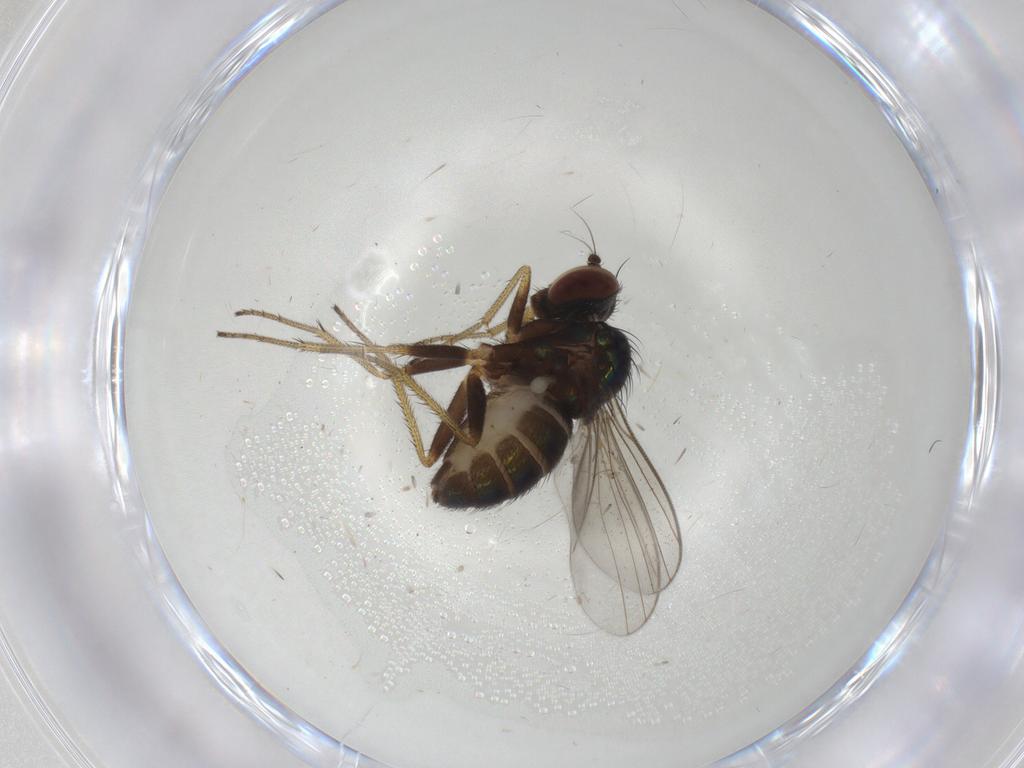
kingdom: Animalia
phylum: Arthropoda
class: Insecta
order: Diptera
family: Dolichopodidae
